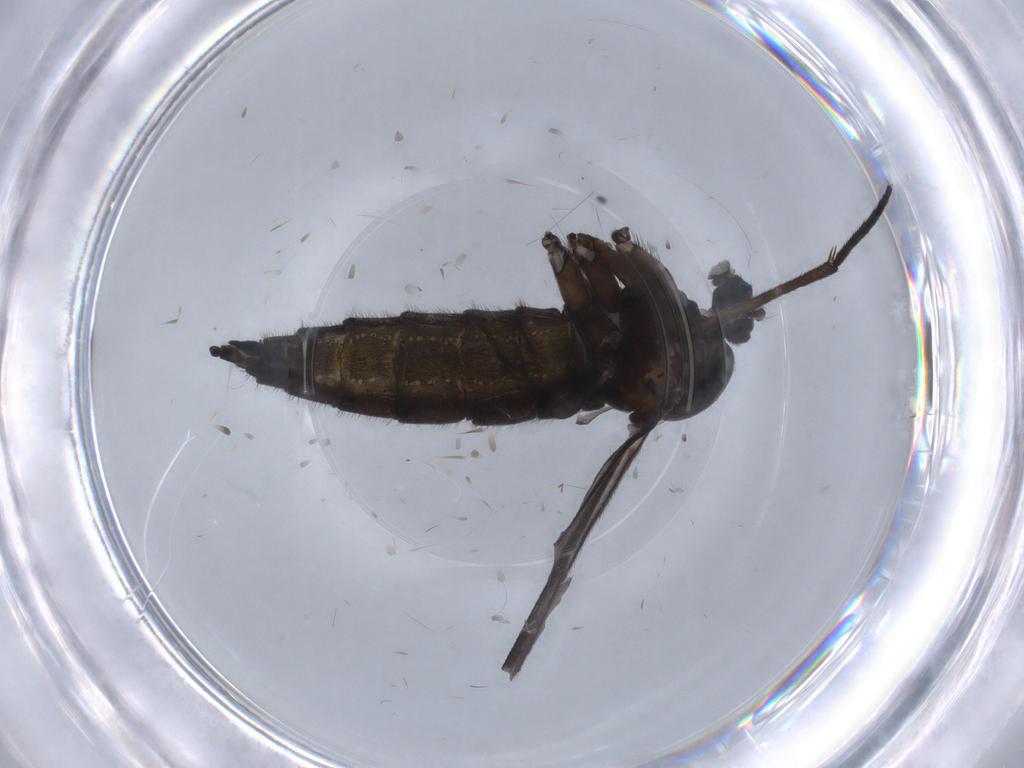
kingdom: Animalia
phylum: Arthropoda
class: Insecta
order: Diptera
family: Sciaridae
